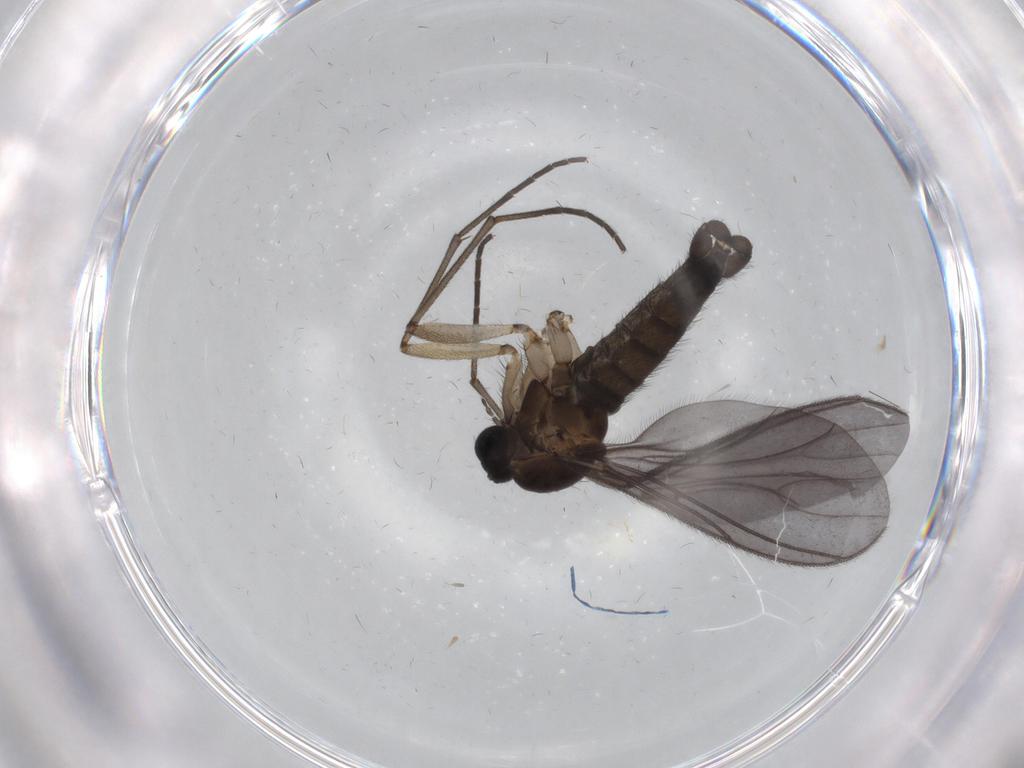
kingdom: Animalia
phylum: Arthropoda
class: Insecta
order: Diptera
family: Sciaridae
